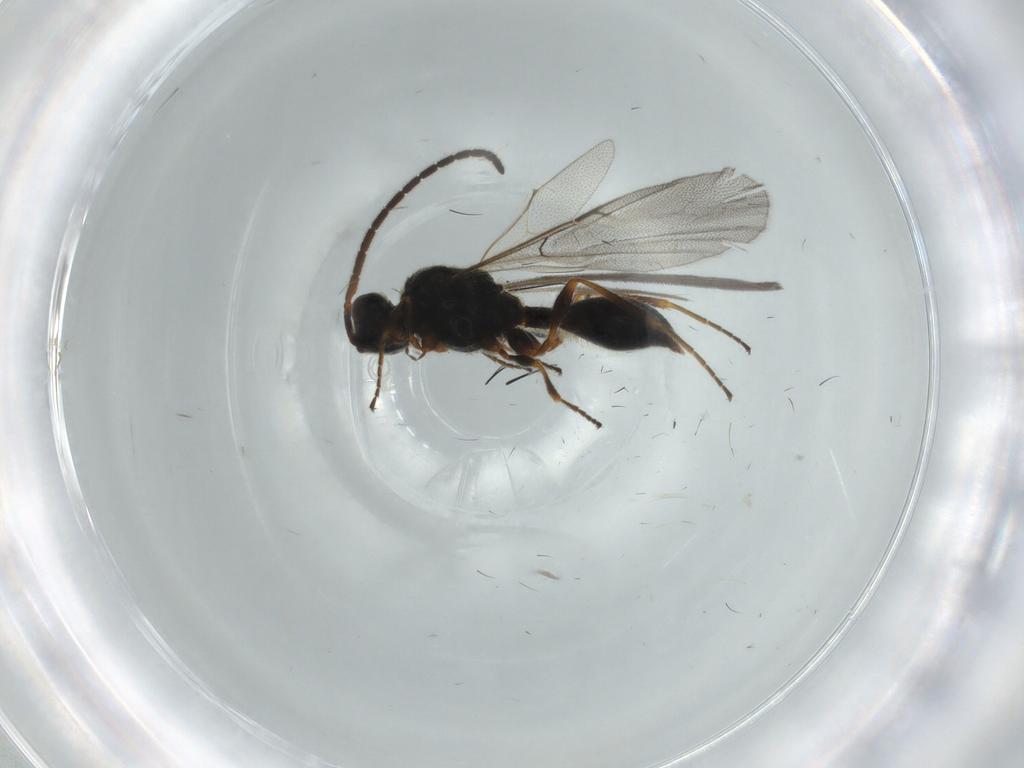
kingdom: Animalia
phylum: Arthropoda
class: Insecta
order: Hymenoptera
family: Diapriidae
